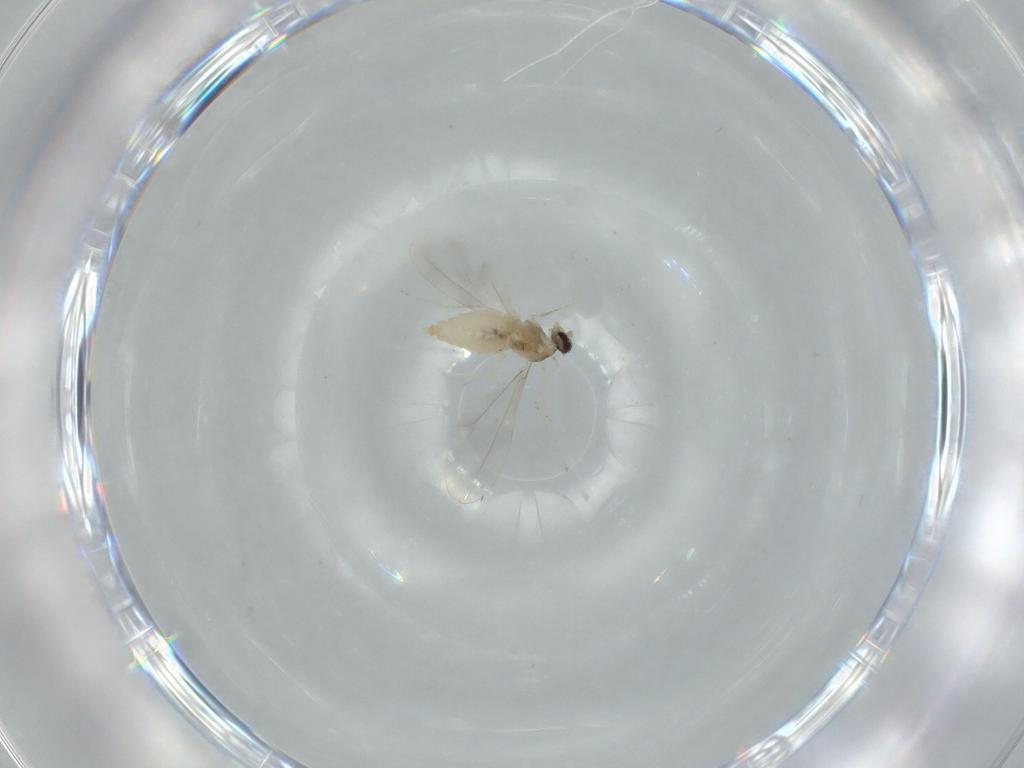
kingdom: Animalia
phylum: Arthropoda
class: Insecta
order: Diptera
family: Cecidomyiidae
